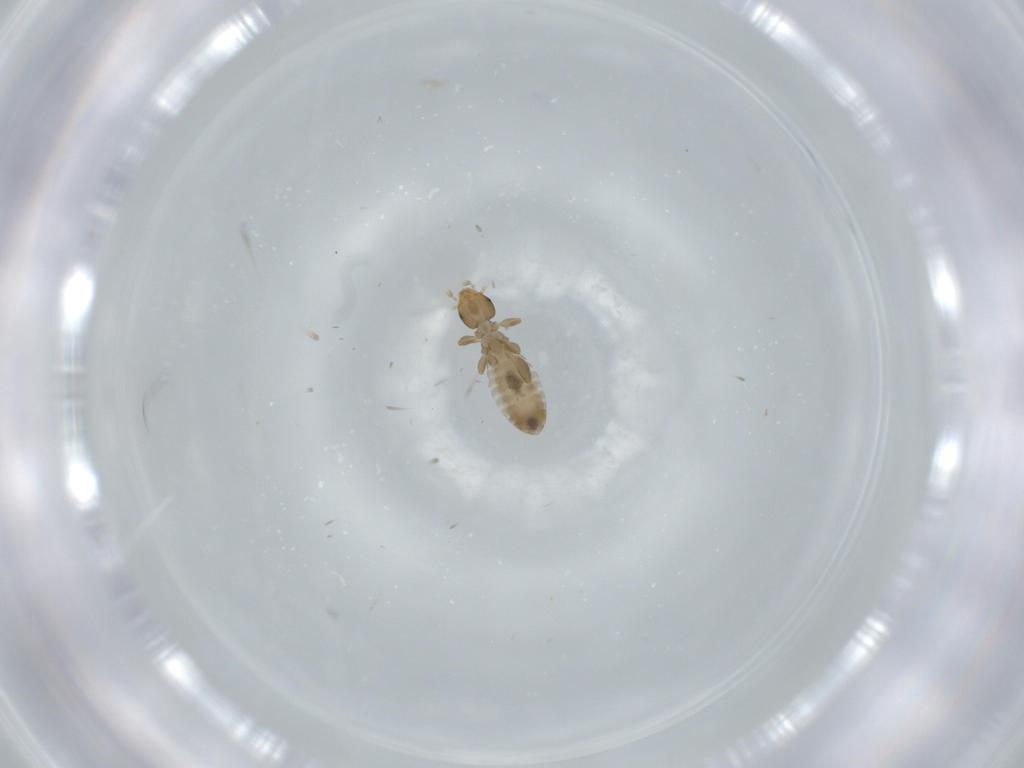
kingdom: Animalia
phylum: Arthropoda
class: Insecta
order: Psocodea
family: Liposcelididae
